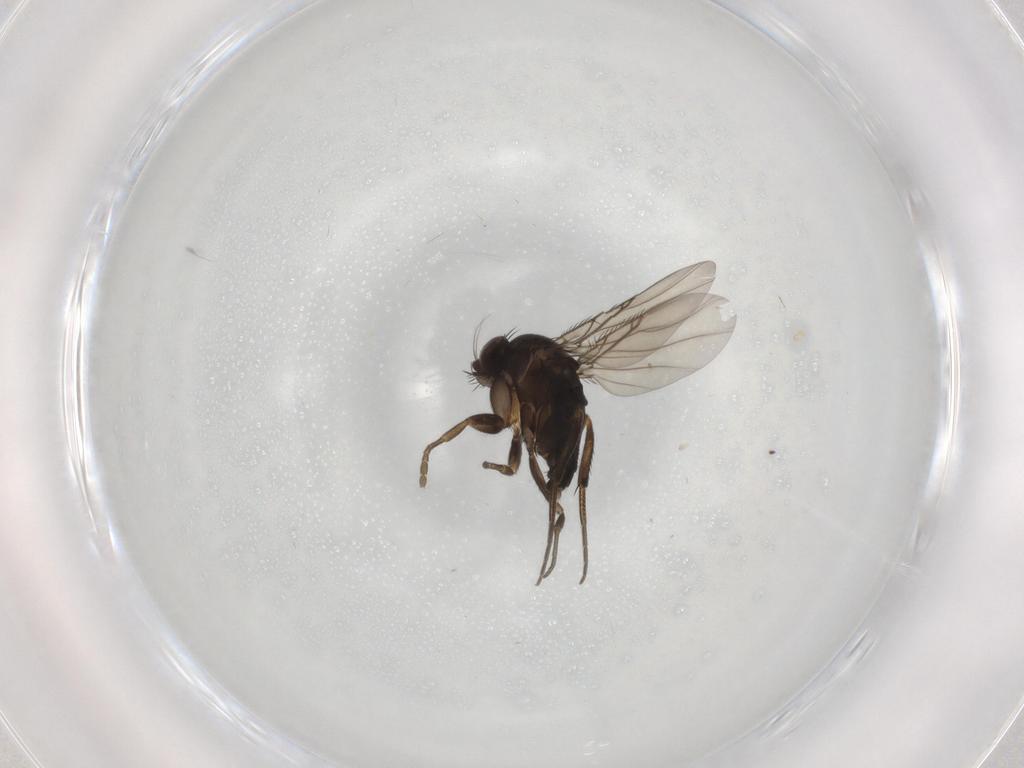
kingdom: Animalia
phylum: Arthropoda
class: Insecta
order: Diptera
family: Phoridae
